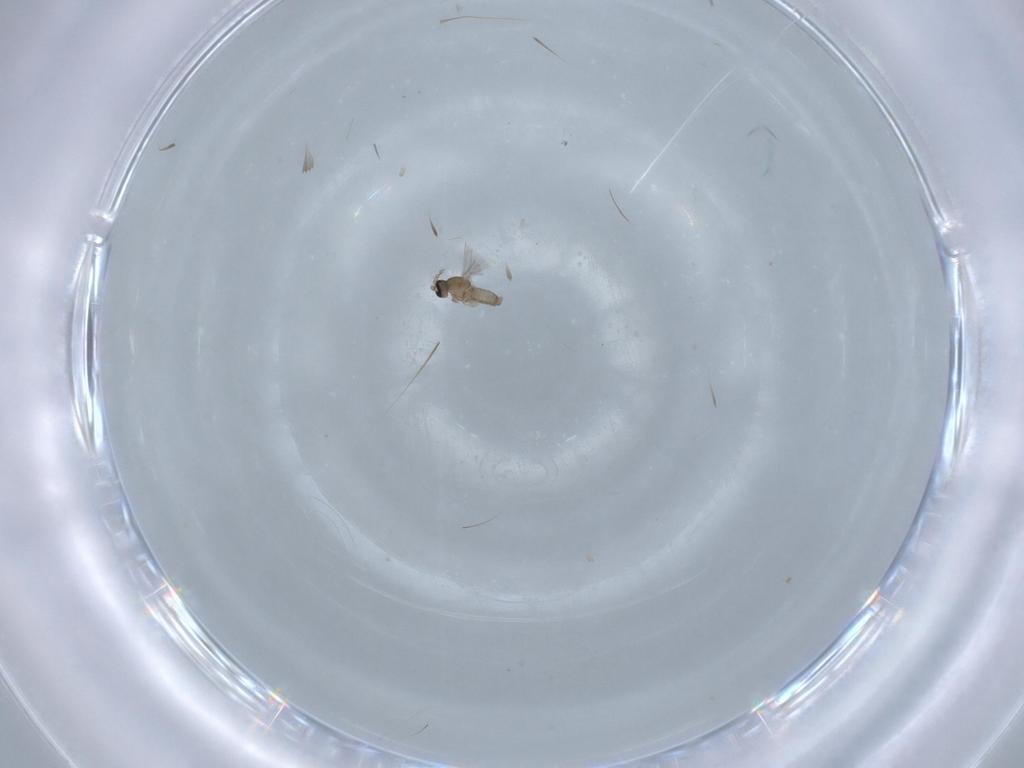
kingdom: Animalia
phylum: Arthropoda
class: Insecta
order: Diptera
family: Cecidomyiidae
